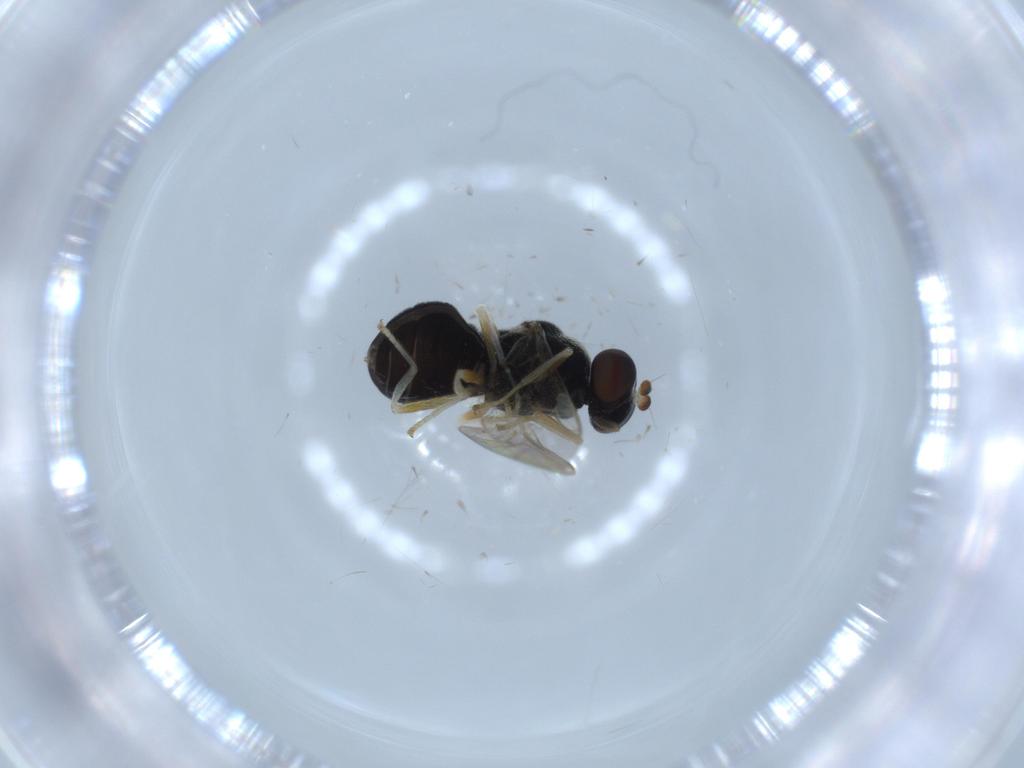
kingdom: Animalia
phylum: Arthropoda
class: Insecta
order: Diptera
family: Stratiomyidae
